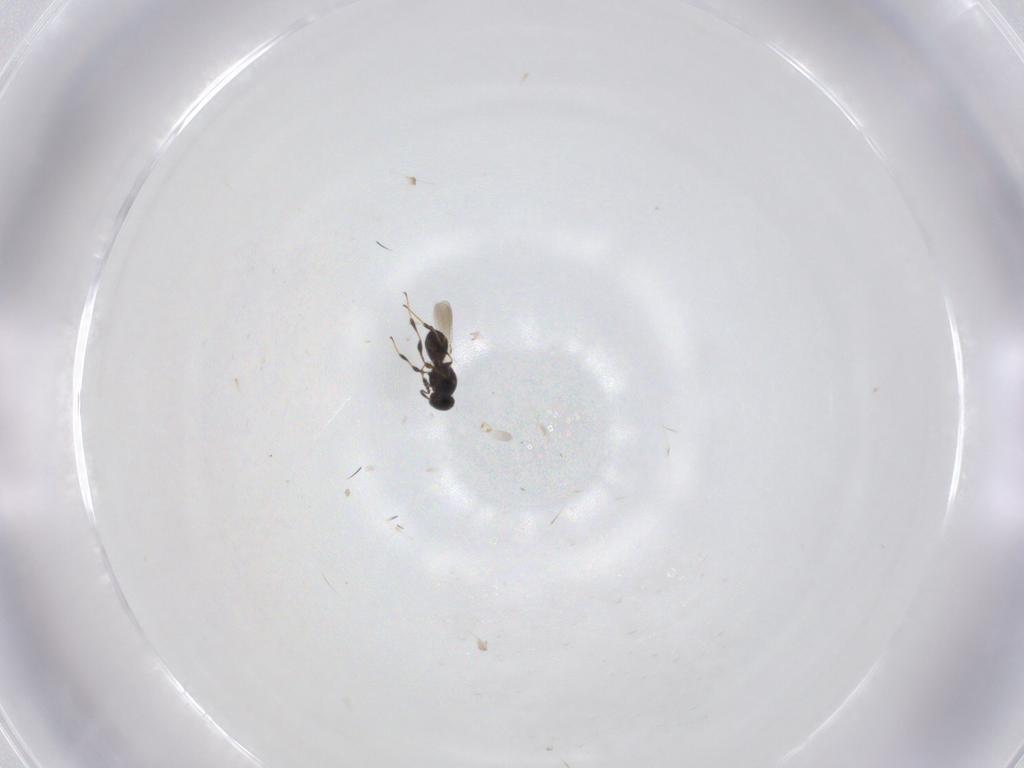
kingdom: Animalia
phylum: Arthropoda
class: Insecta
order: Hymenoptera
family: Platygastridae
